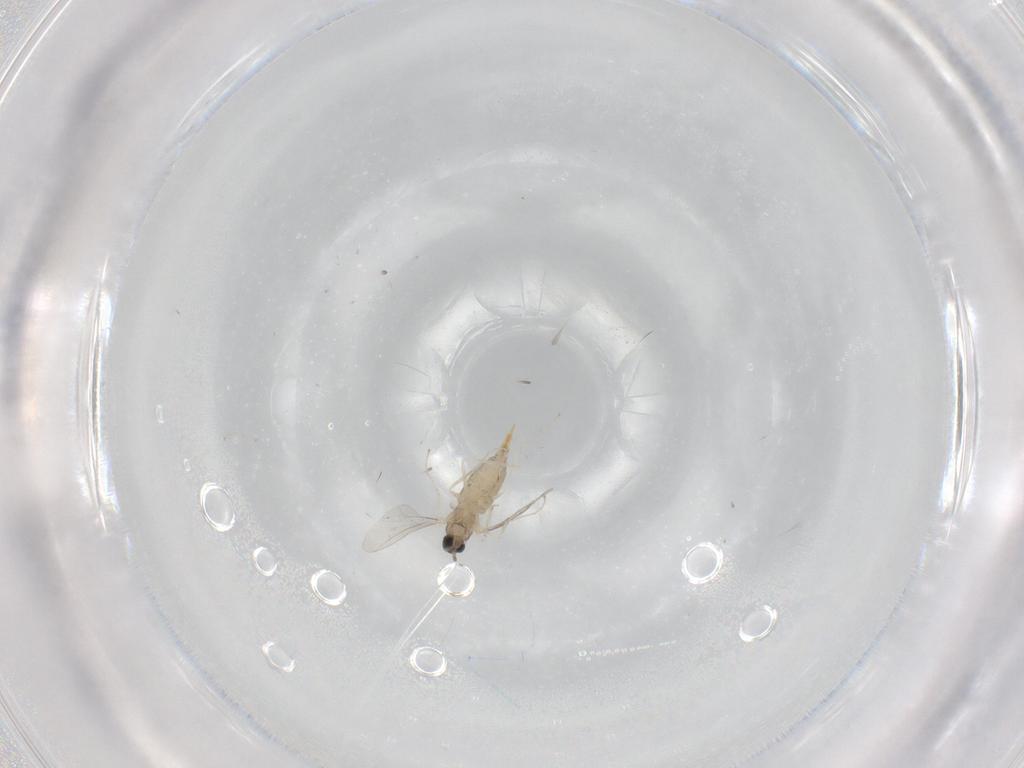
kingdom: Animalia
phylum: Arthropoda
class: Insecta
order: Diptera
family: Cecidomyiidae
